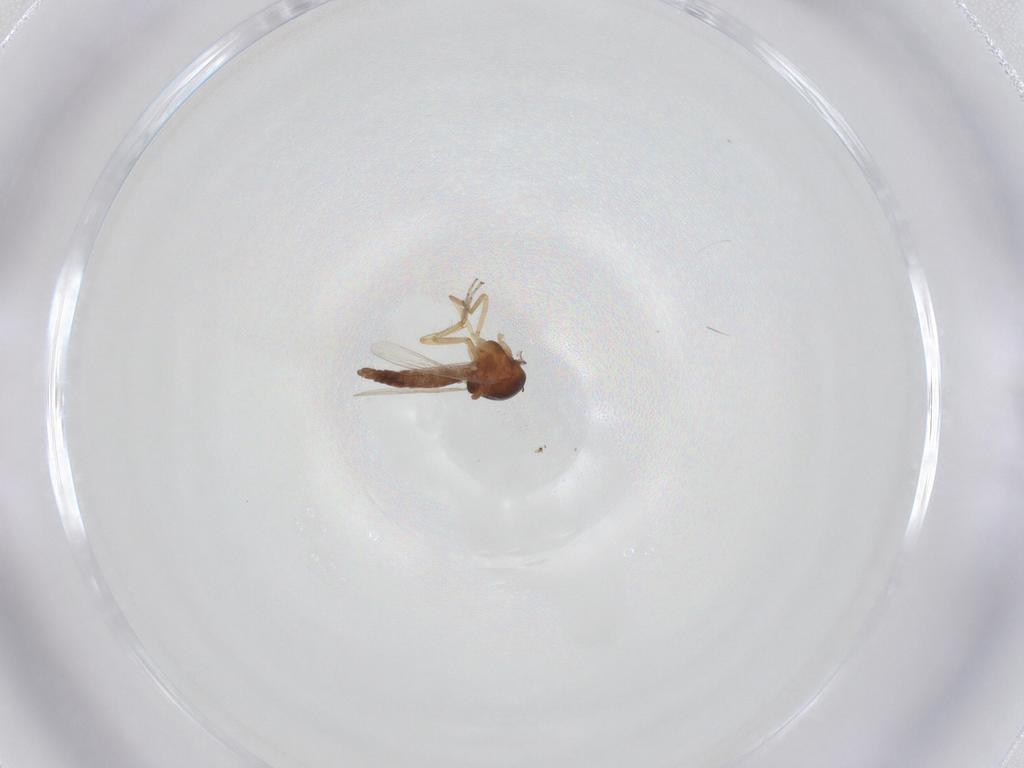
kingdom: Animalia
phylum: Arthropoda
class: Insecta
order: Diptera
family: Ceratopogonidae
